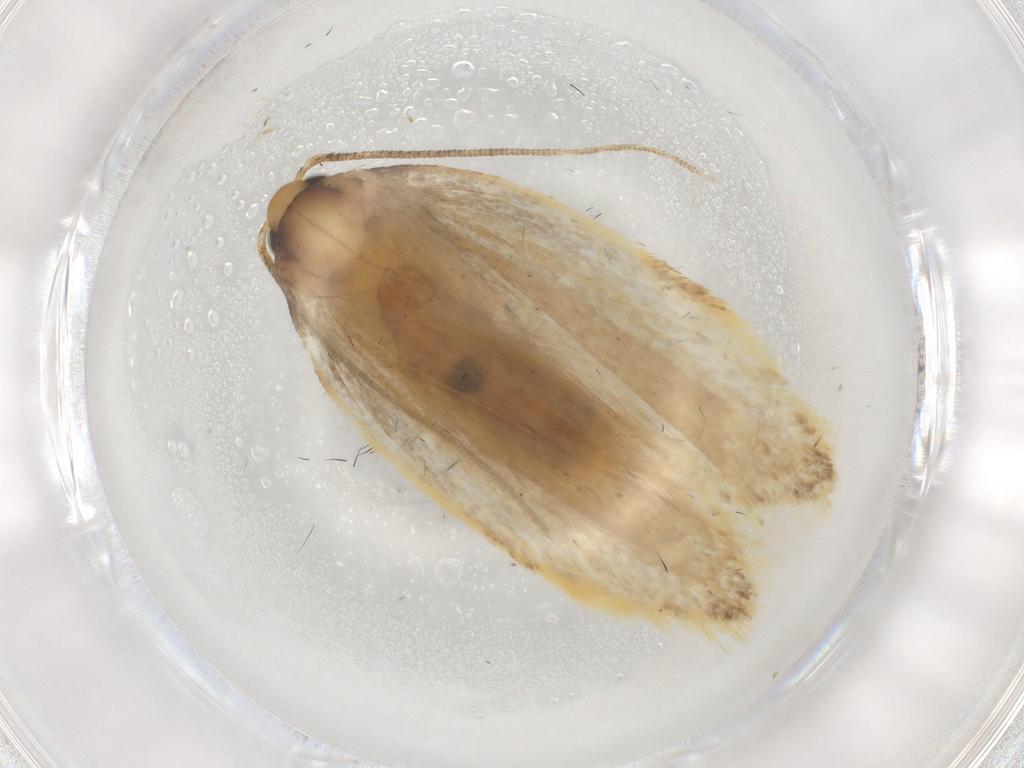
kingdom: Animalia
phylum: Arthropoda
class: Insecta
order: Lepidoptera
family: Depressariidae
